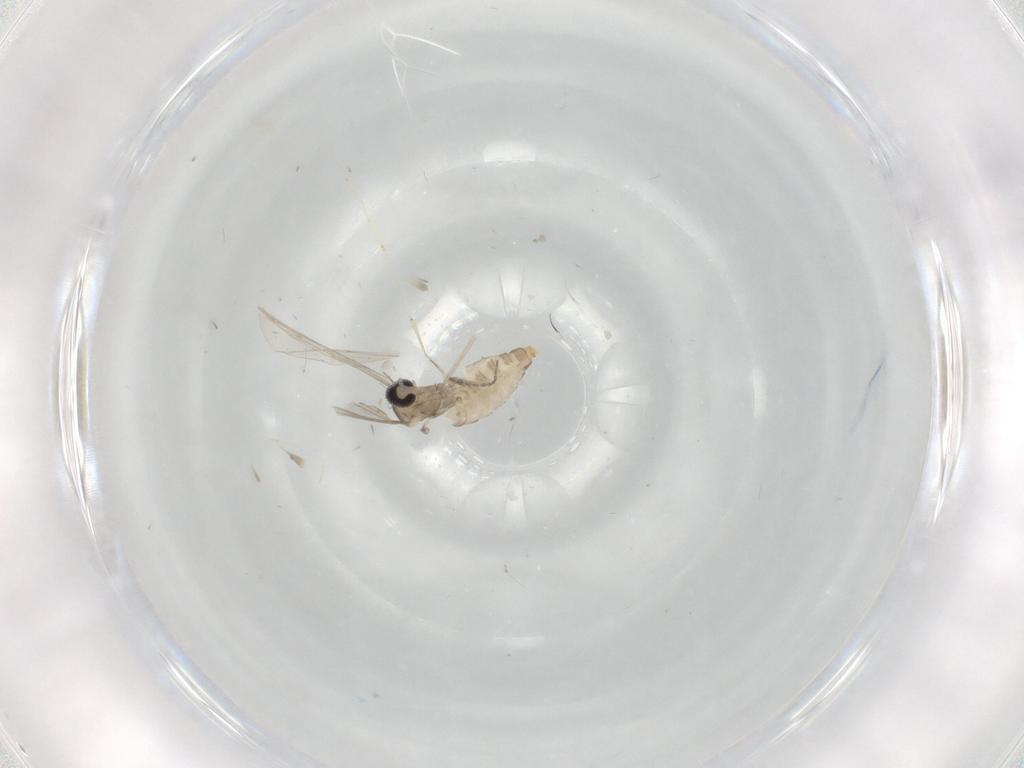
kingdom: Animalia
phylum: Arthropoda
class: Insecta
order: Diptera
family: Cecidomyiidae
